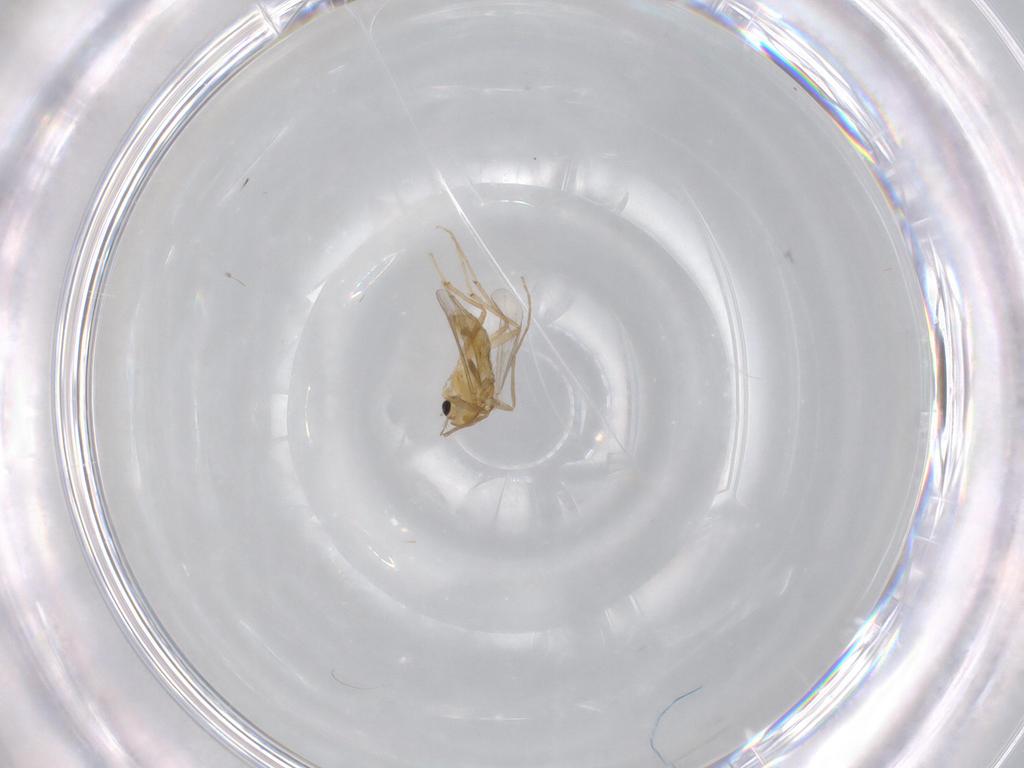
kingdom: Animalia
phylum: Arthropoda
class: Insecta
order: Diptera
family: Chironomidae
